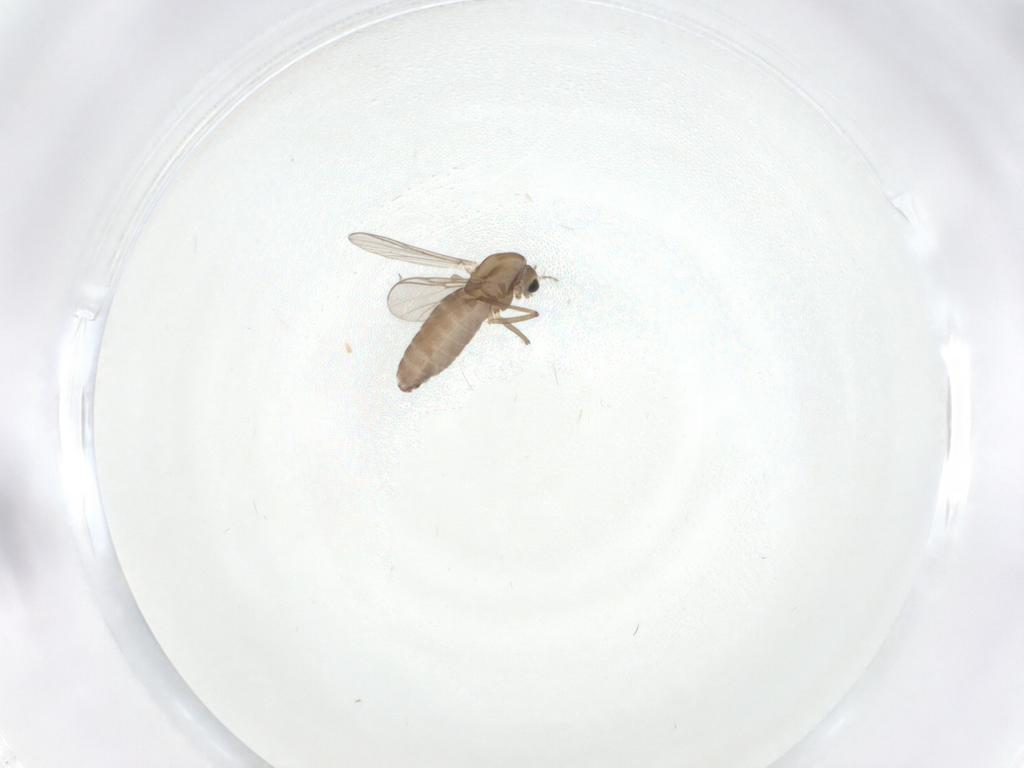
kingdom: Animalia
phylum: Arthropoda
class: Insecta
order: Diptera
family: Chironomidae
